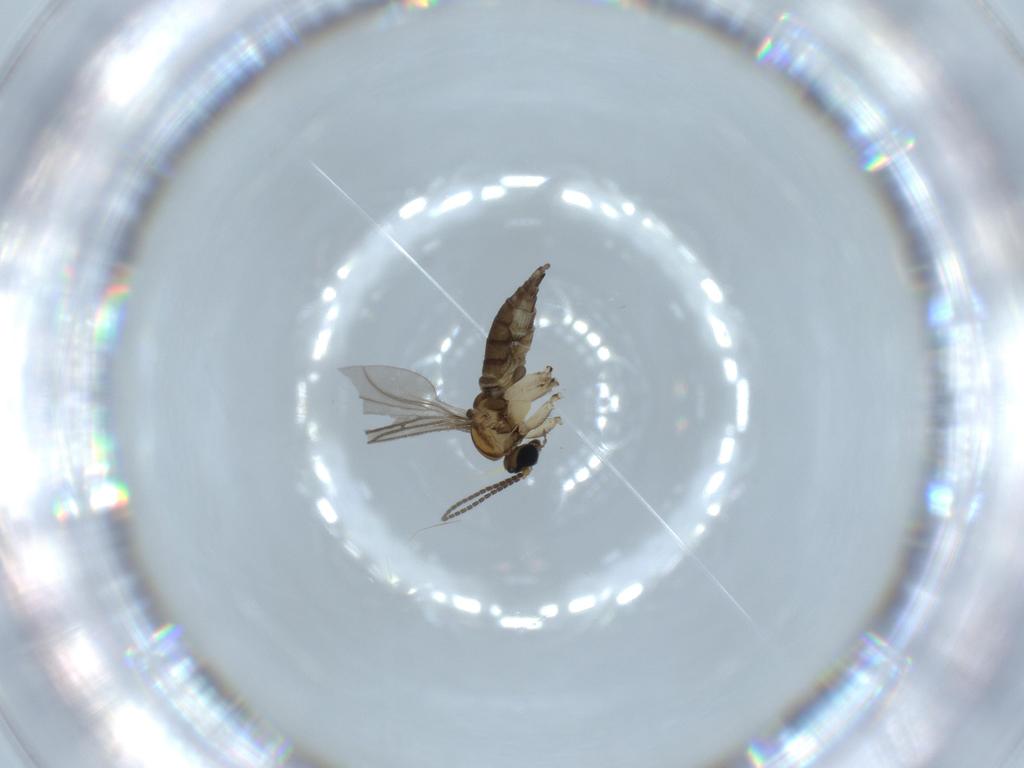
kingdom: Animalia
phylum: Arthropoda
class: Insecta
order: Diptera
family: Sciaridae
